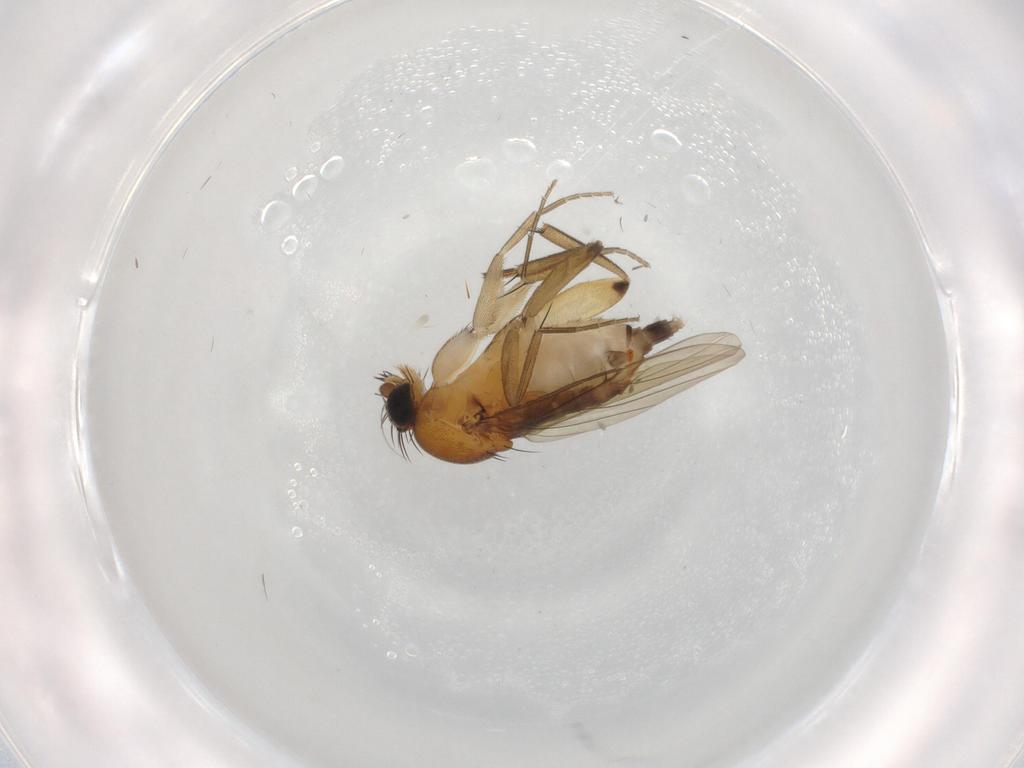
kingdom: Animalia
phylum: Arthropoda
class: Insecta
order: Diptera
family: Phoridae
